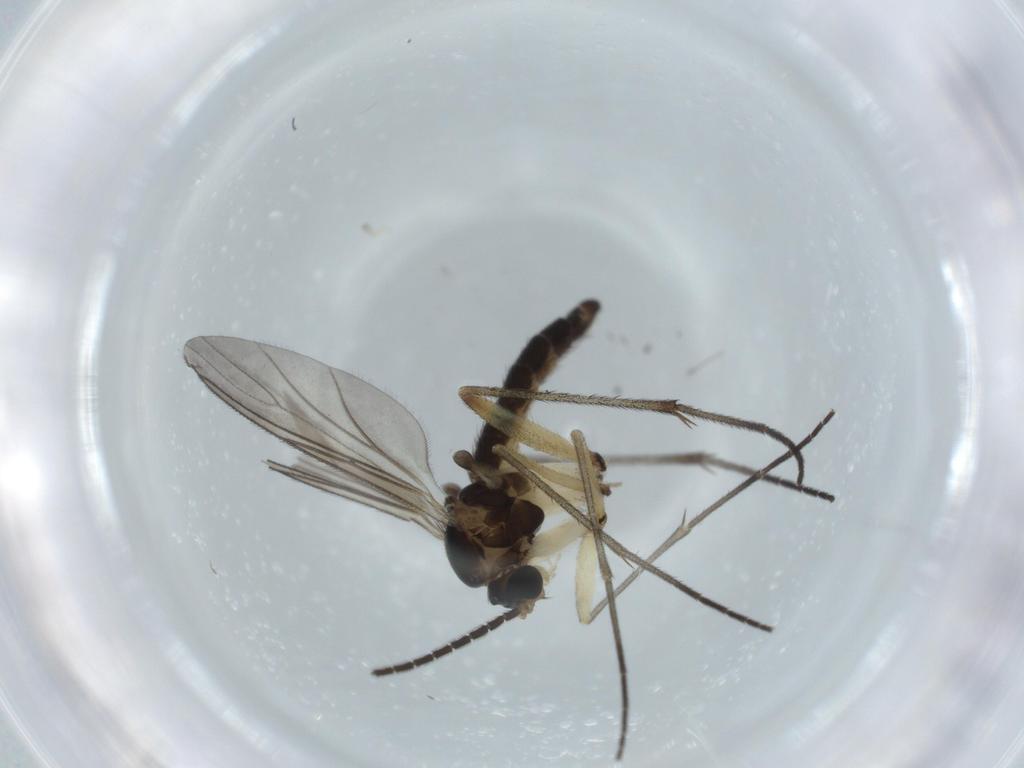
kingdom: Animalia
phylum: Arthropoda
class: Insecta
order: Diptera
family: Sciaridae
